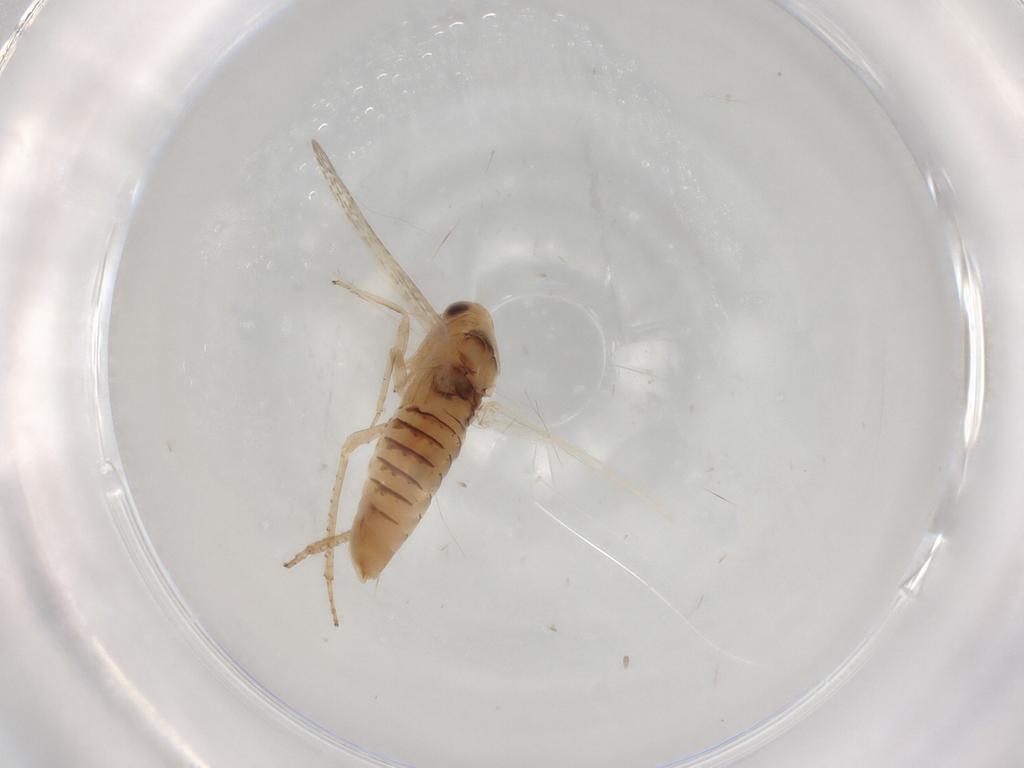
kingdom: Animalia
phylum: Arthropoda
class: Insecta
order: Hemiptera
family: Cicadellidae
